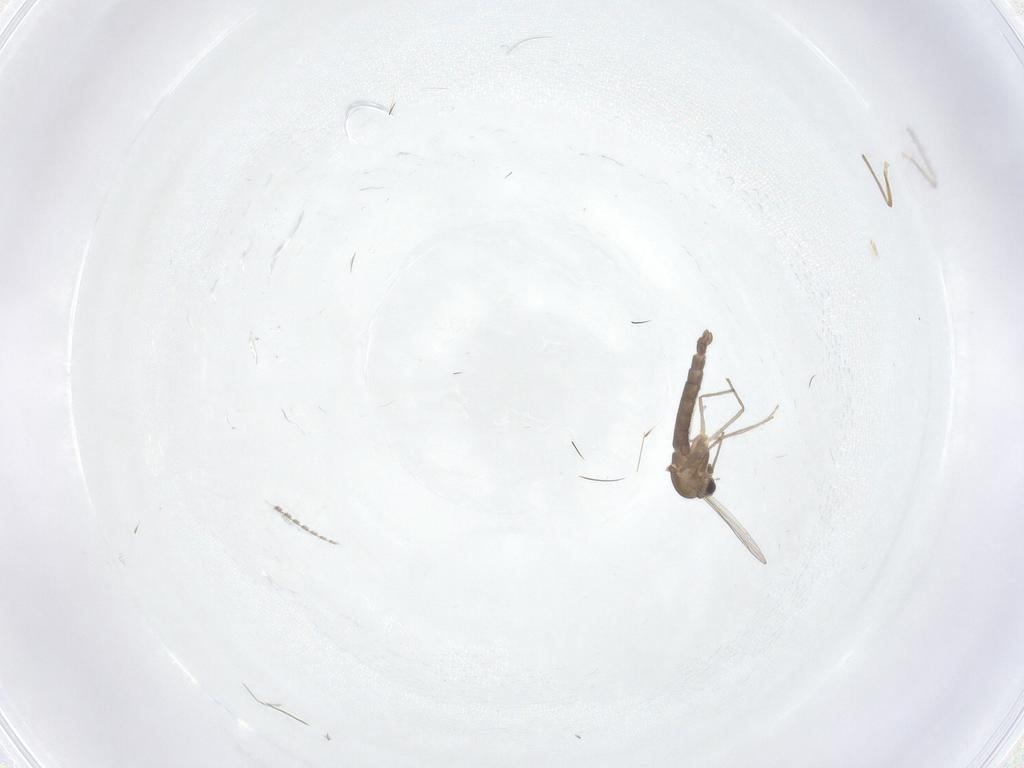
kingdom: Animalia
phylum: Arthropoda
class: Insecta
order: Diptera
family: Chironomidae
